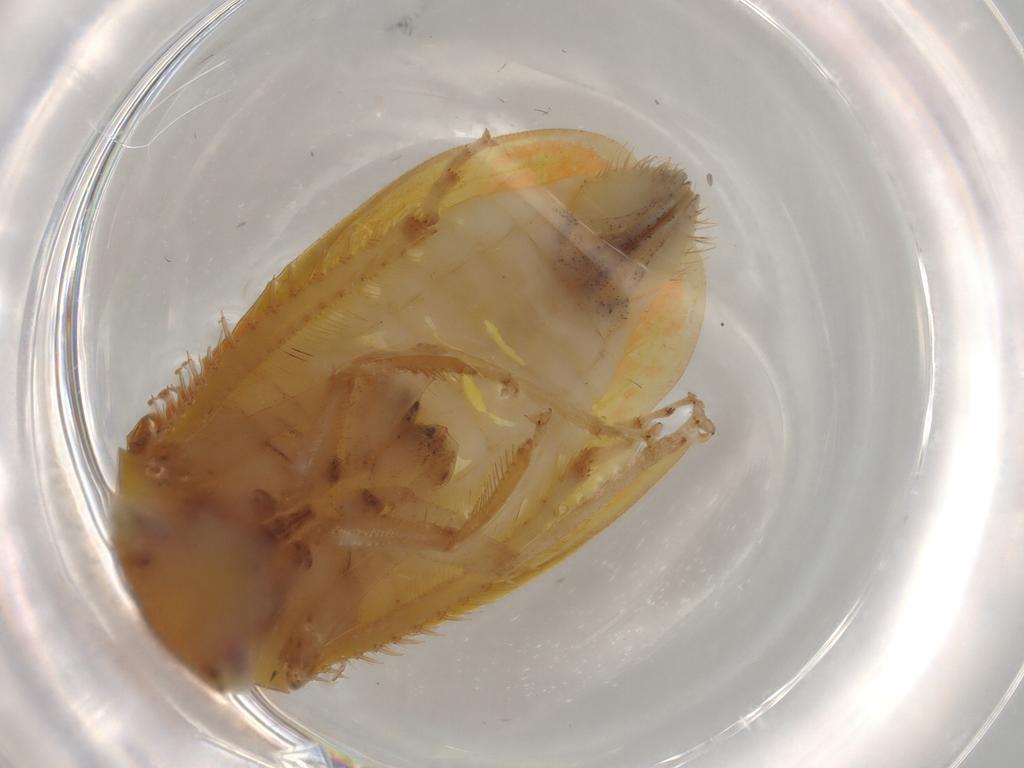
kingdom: Animalia
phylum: Arthropoda
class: Insecta
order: Hemiptera
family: Cicadellidae
